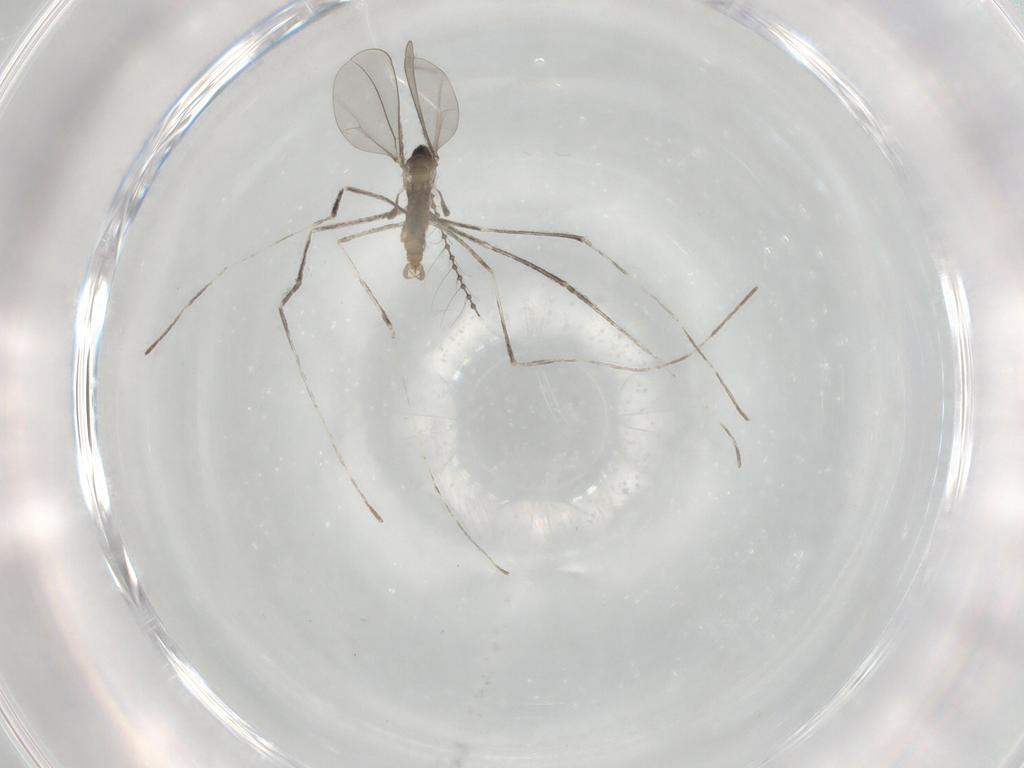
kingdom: Animalia
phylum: Arthropoda
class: Insecta
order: Diptera
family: Cecidomyiidae
